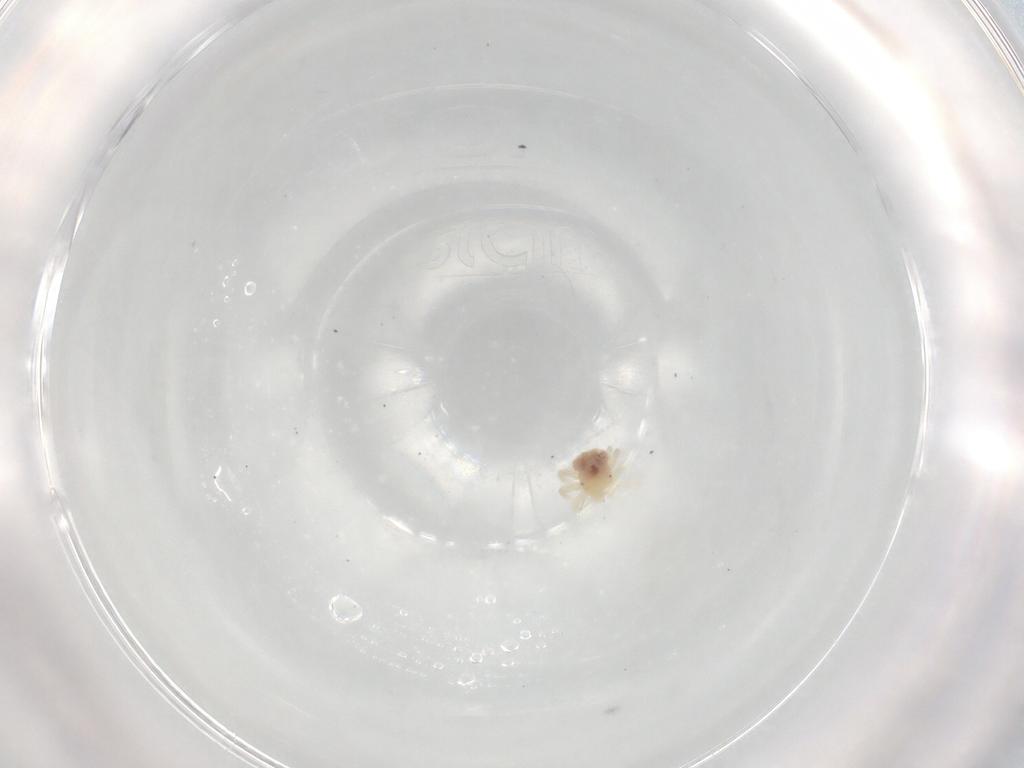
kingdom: Animalia
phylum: Arthropoda
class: Arachnida
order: Trombidiformes
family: Anystidae
